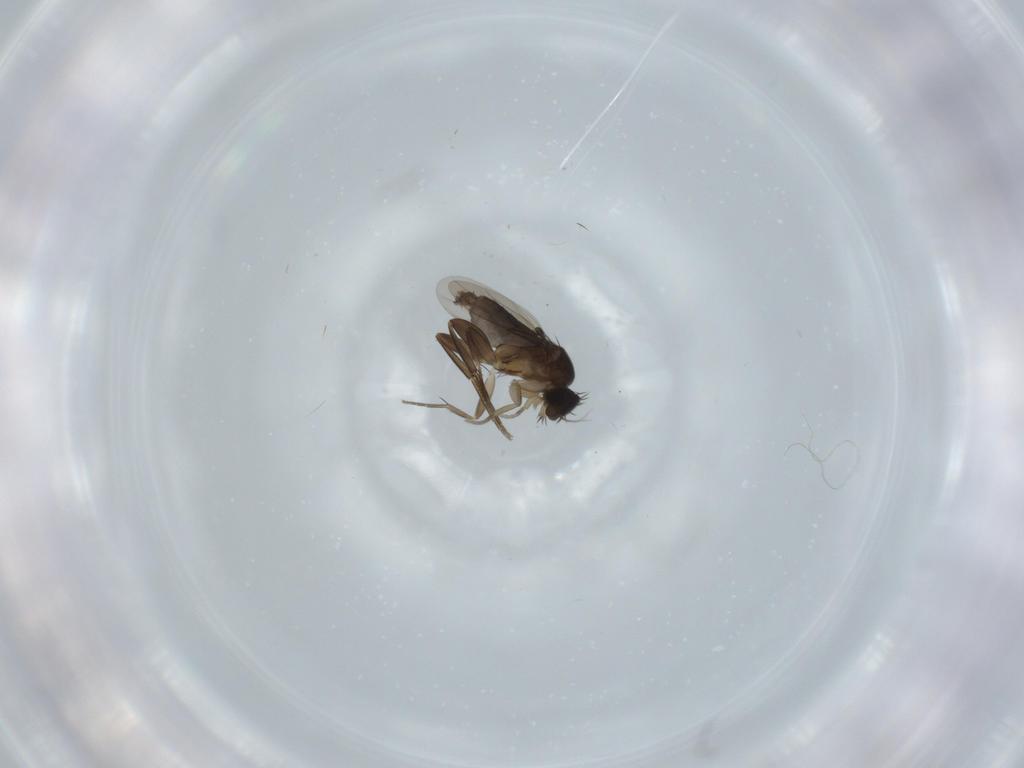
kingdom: Animalia
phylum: Arthropoda
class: Insecta
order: Diptera
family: Phoridae
